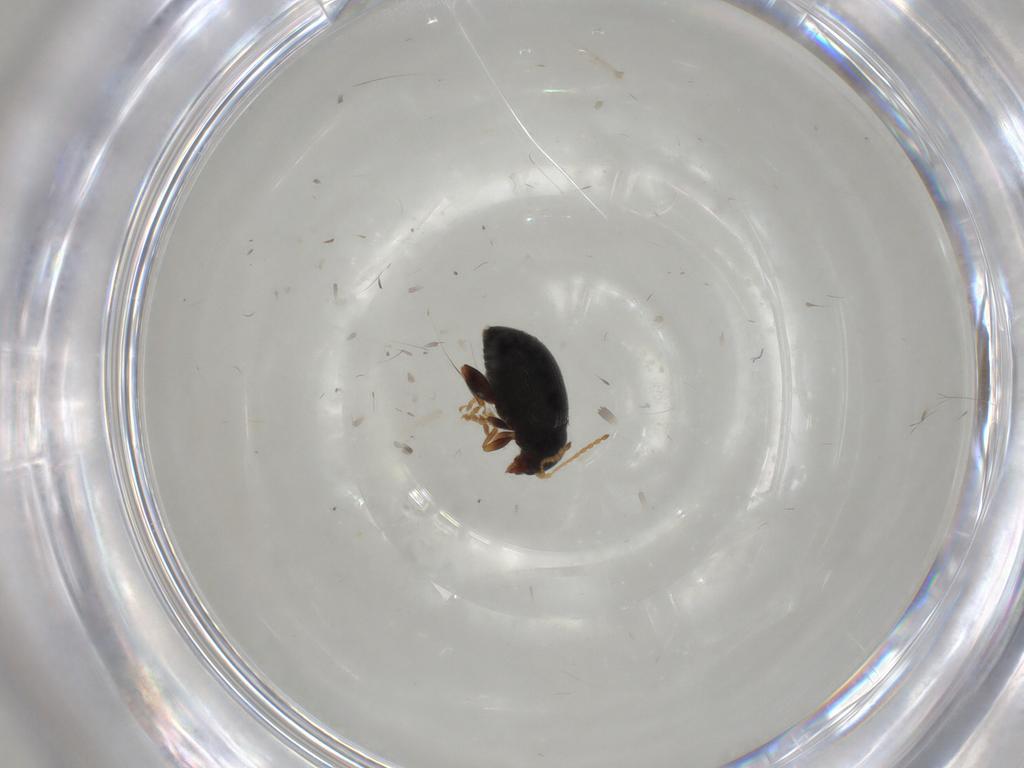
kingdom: Animalia
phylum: Arthropoda
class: Insecta
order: Coleoptera
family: Chrysomelidae
